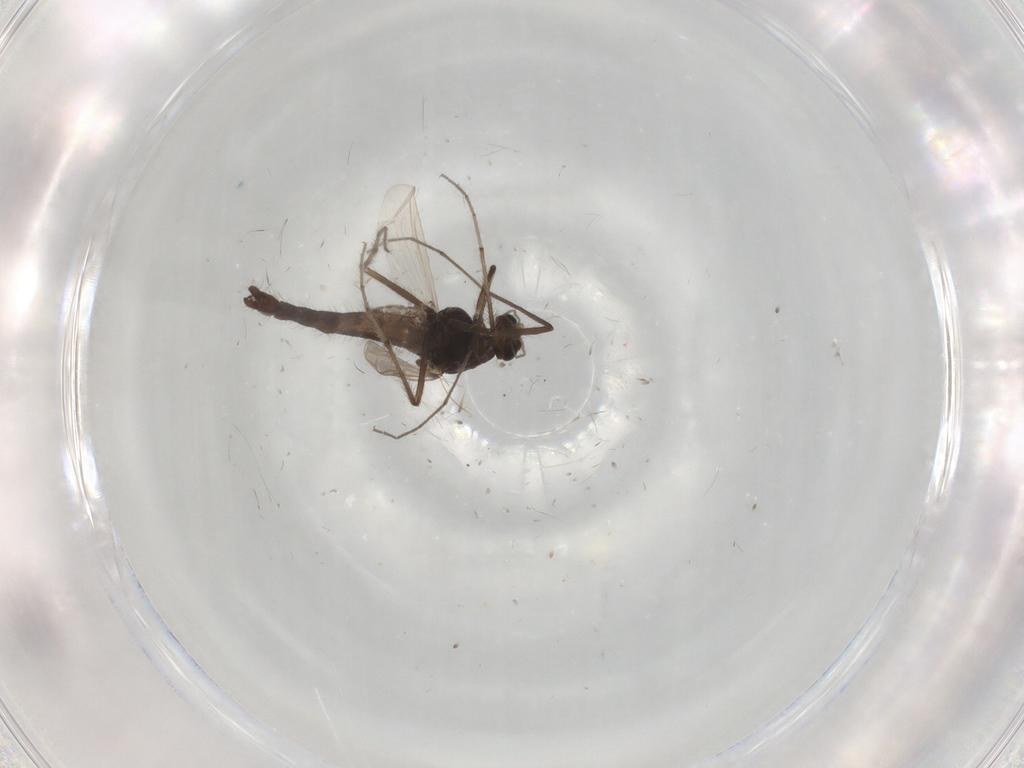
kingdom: Animalia
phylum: Arthropoda
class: Insecta
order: Diptera
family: Chironomidae
